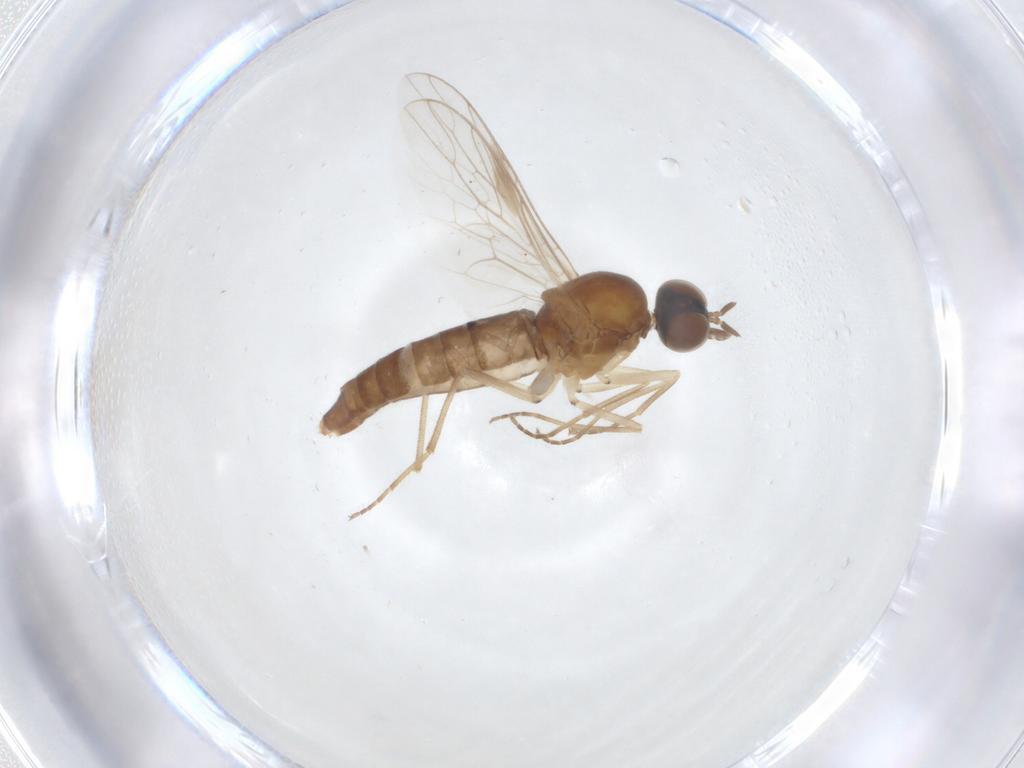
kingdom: Animalia
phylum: Arthropoda
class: Insecta
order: Diptera
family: Scenopinidae
